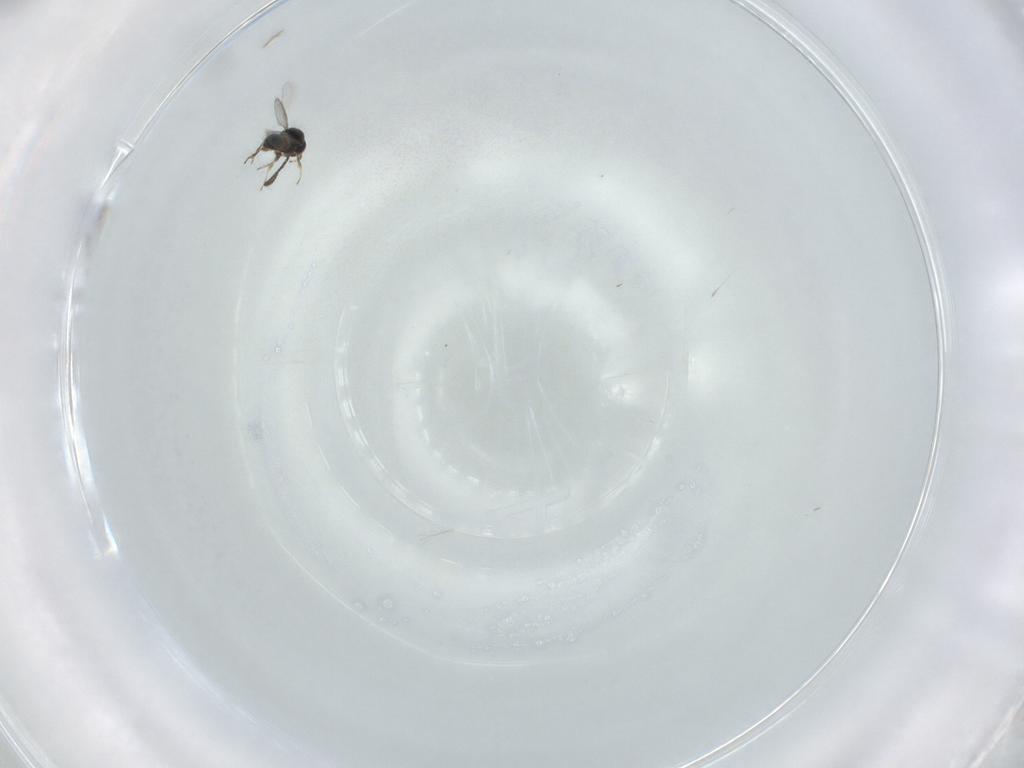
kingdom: Animalia
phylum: Arthropoda
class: Insecta
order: Hymenoptera
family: Scelionidae
